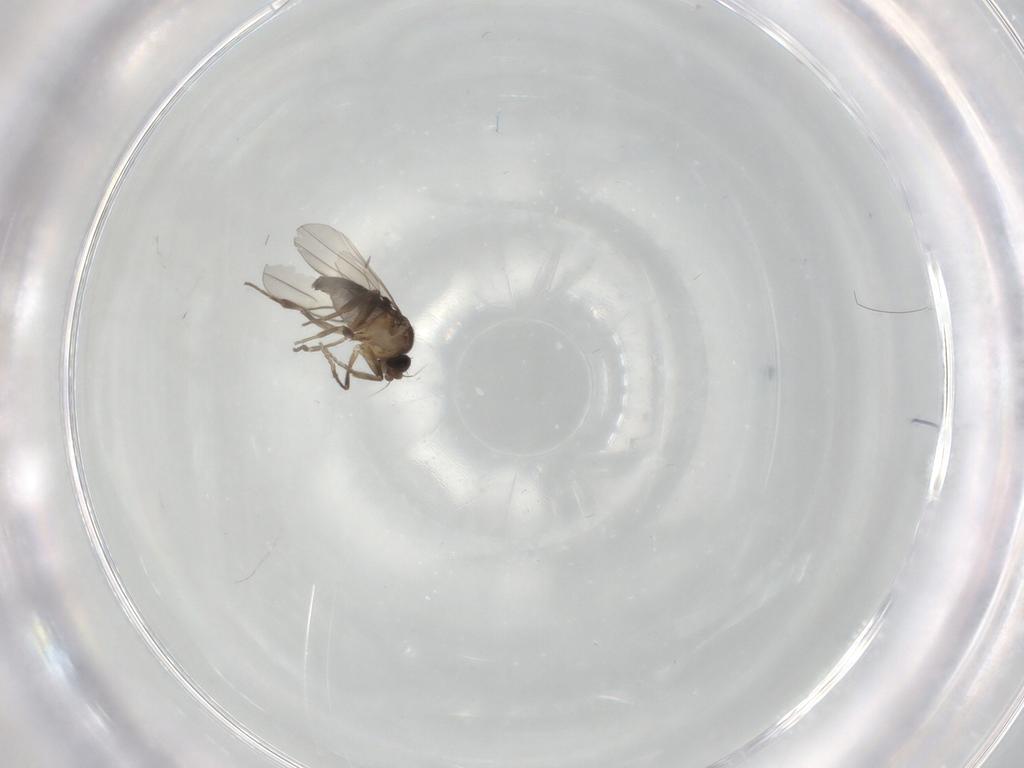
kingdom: Animalia
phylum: Arthropoda
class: Insecta
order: Diptera
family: Phoridae
